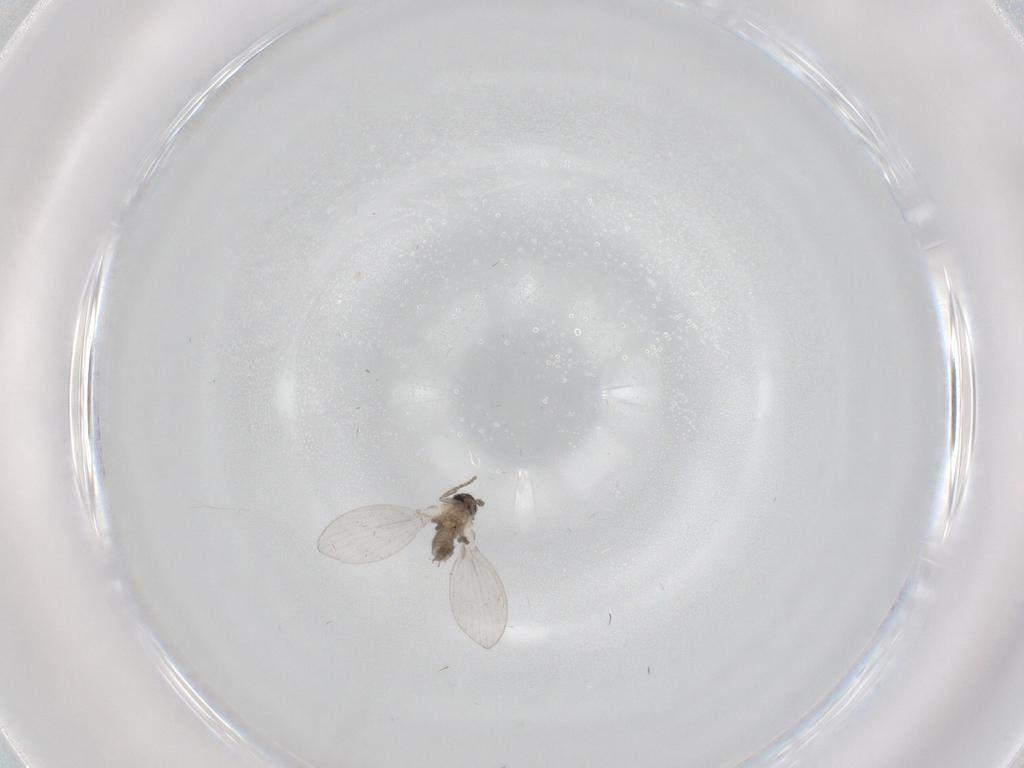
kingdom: Animalia
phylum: Arthropoda
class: Insecta
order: Diptera
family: Psychodidae
